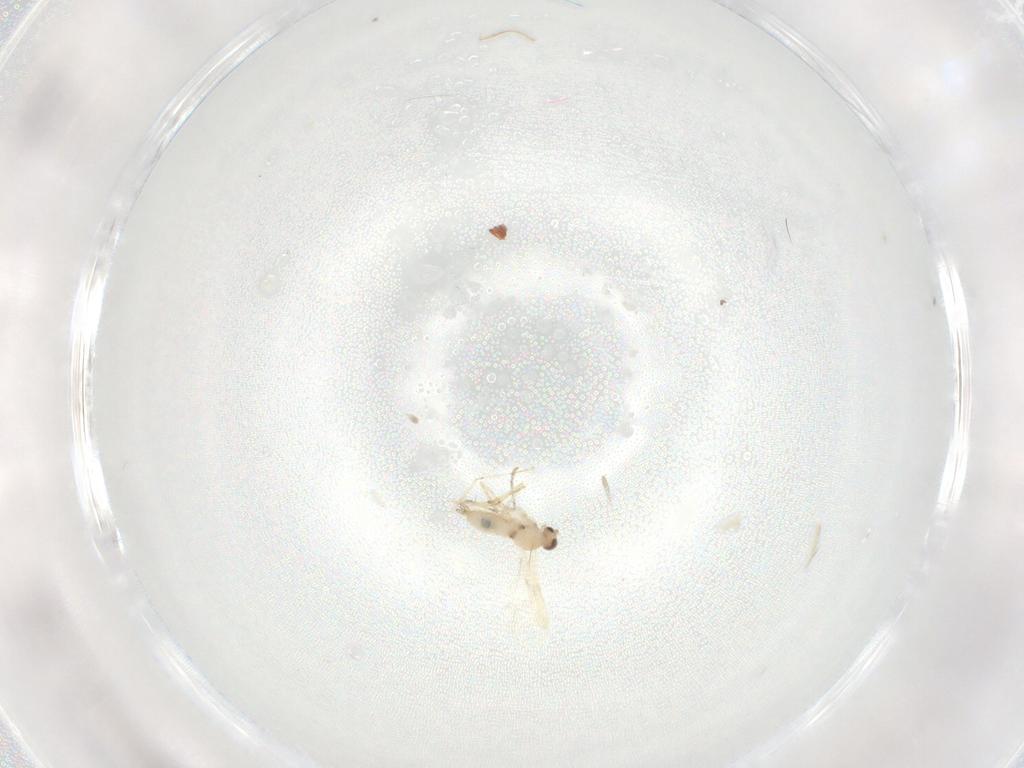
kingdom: Animalia
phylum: Arthropoda
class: Insecta
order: Diptera
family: Cecidomyiidae
